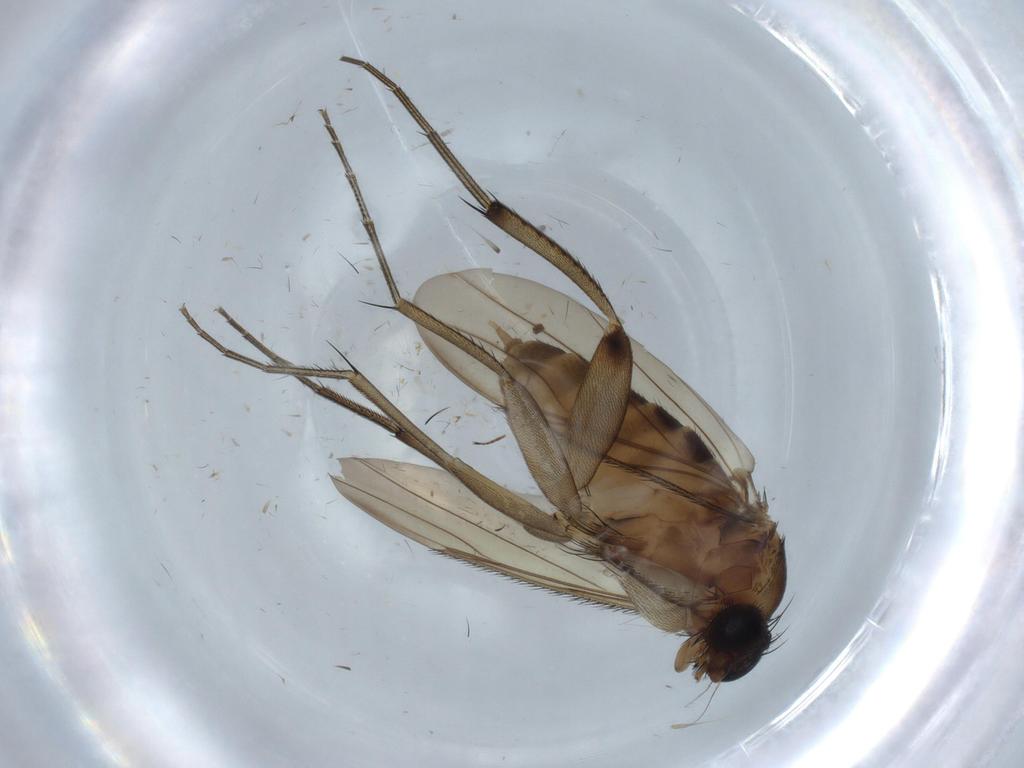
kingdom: Animalia
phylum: Arthropoda
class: Insecta
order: Diptera
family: Phoridae
